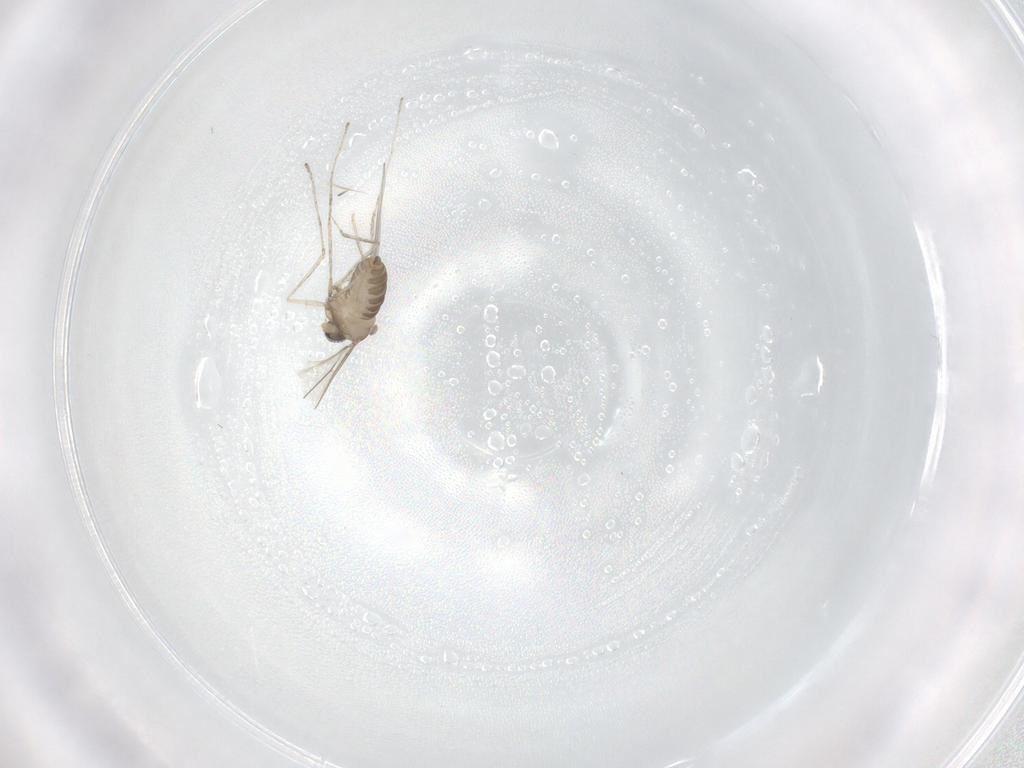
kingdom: Animalia
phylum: Arthropoda
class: Insecta
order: Diptera
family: Cecidomyiidae
